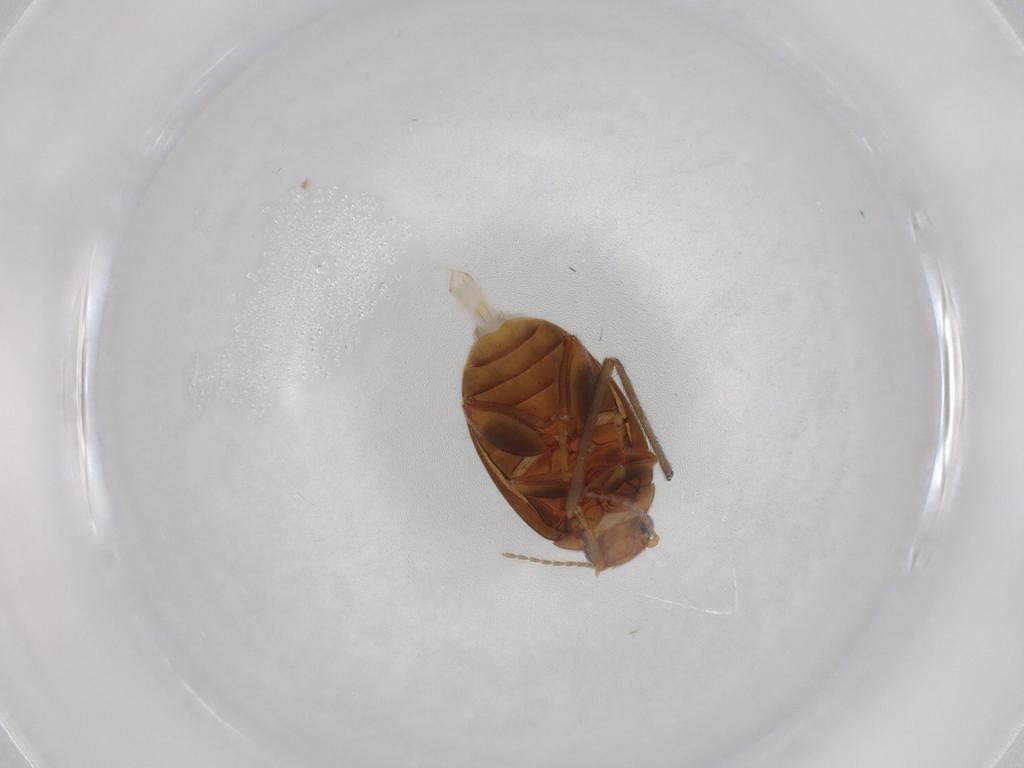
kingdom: Animalia
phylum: Arthropoda
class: Insecta
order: Coleoptera
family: Scirtidae
